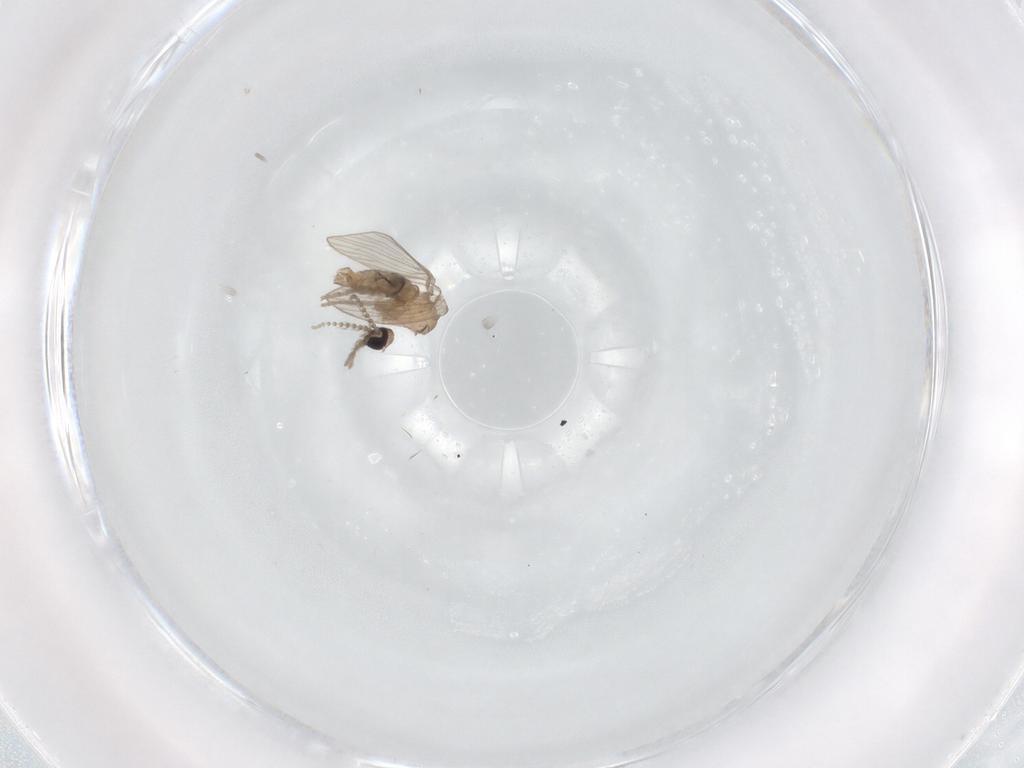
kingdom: Animalia
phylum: Arthropoda
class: Insecta
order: Diptera
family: Psychodidae
